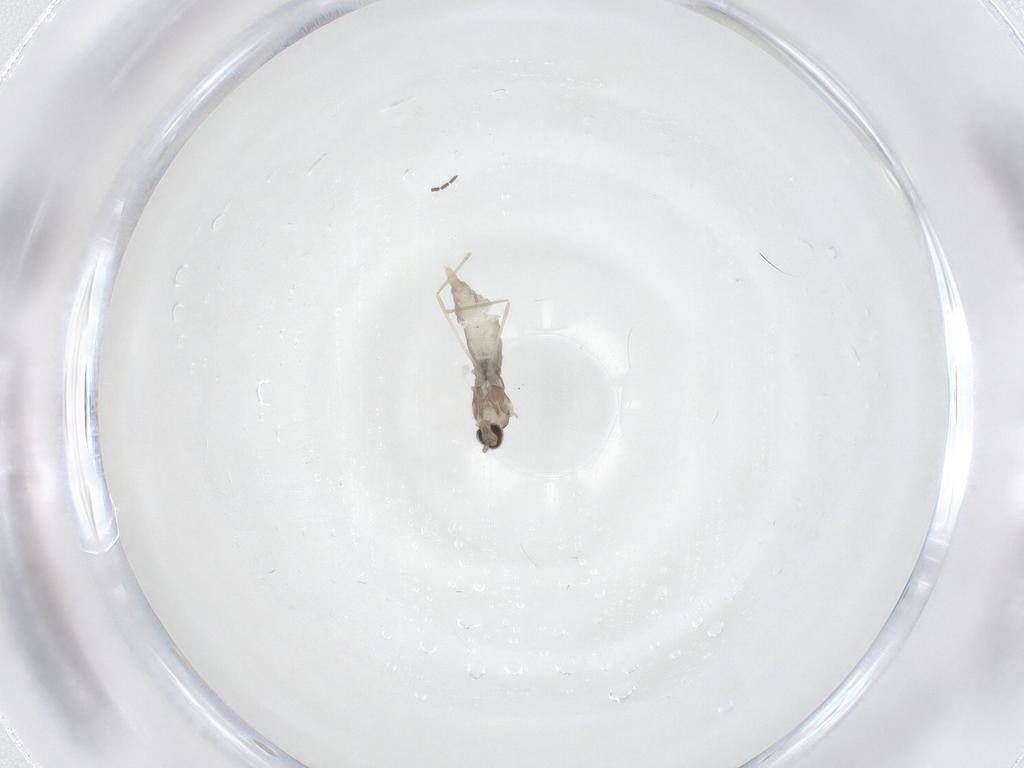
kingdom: Animalia
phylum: Arthropoda
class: Insecta
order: Diptera
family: Cecidomyiidae
